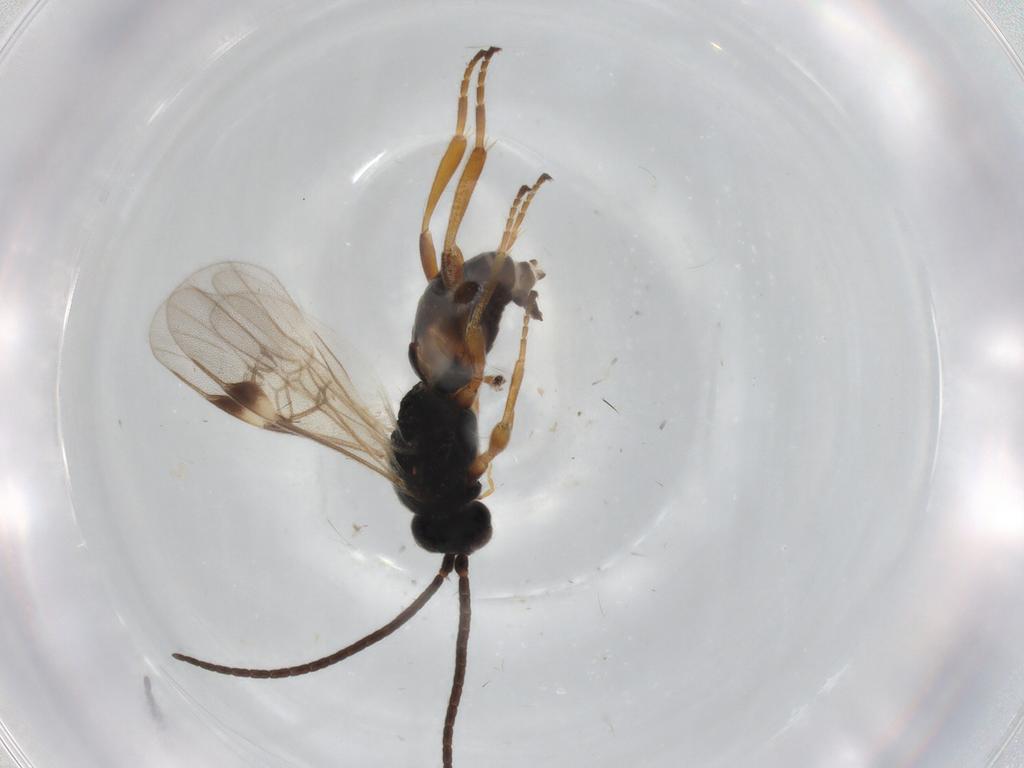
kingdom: Animalia
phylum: Arthropoda
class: Insecta
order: Hymenoptera
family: Braconidae
